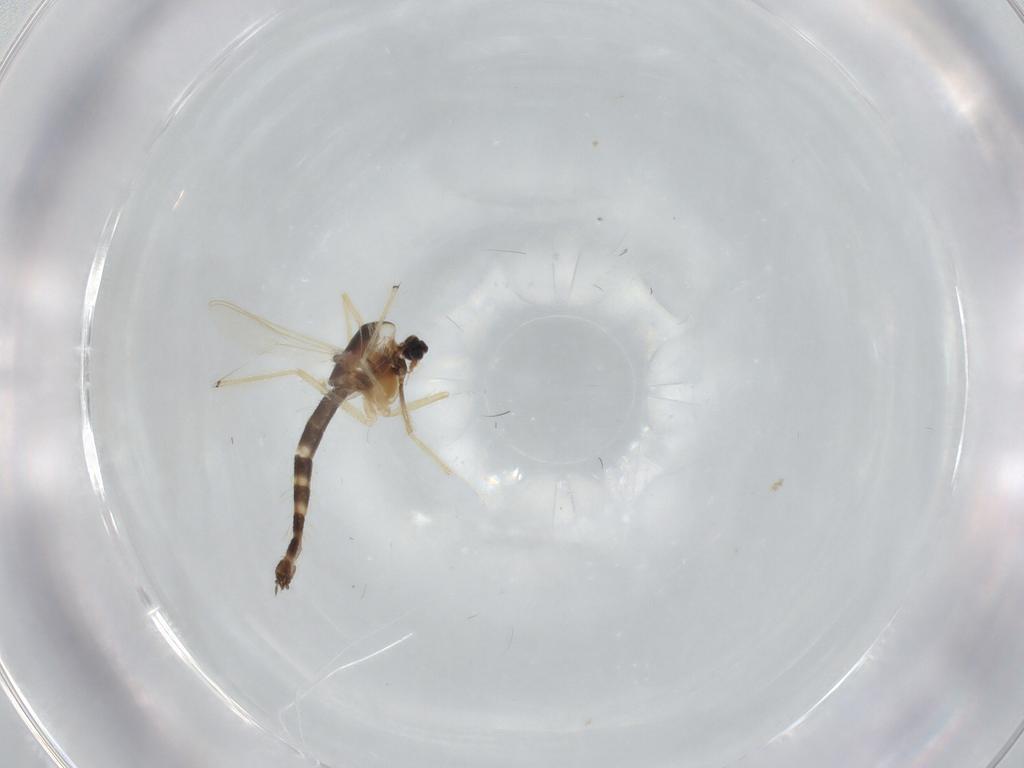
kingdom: Animalia
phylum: Arthropoda
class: Insecta
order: Diptera
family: Chironomidae
